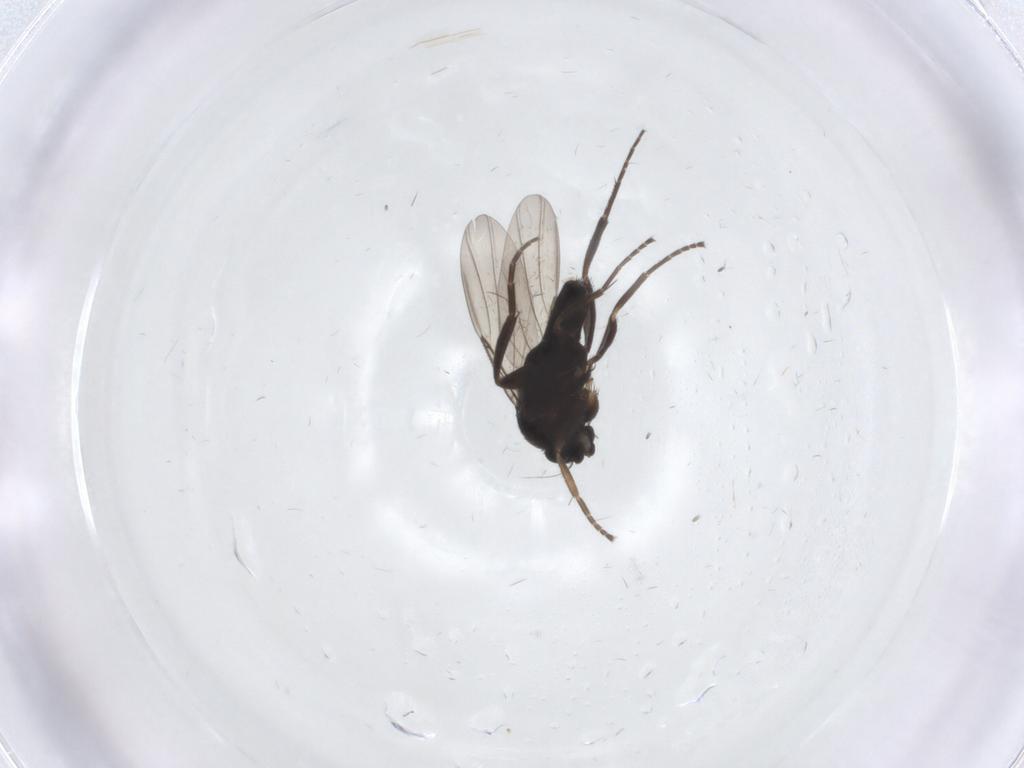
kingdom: Animalia
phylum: Arthropoda
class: Insecta
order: Diptera
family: Phoridae
